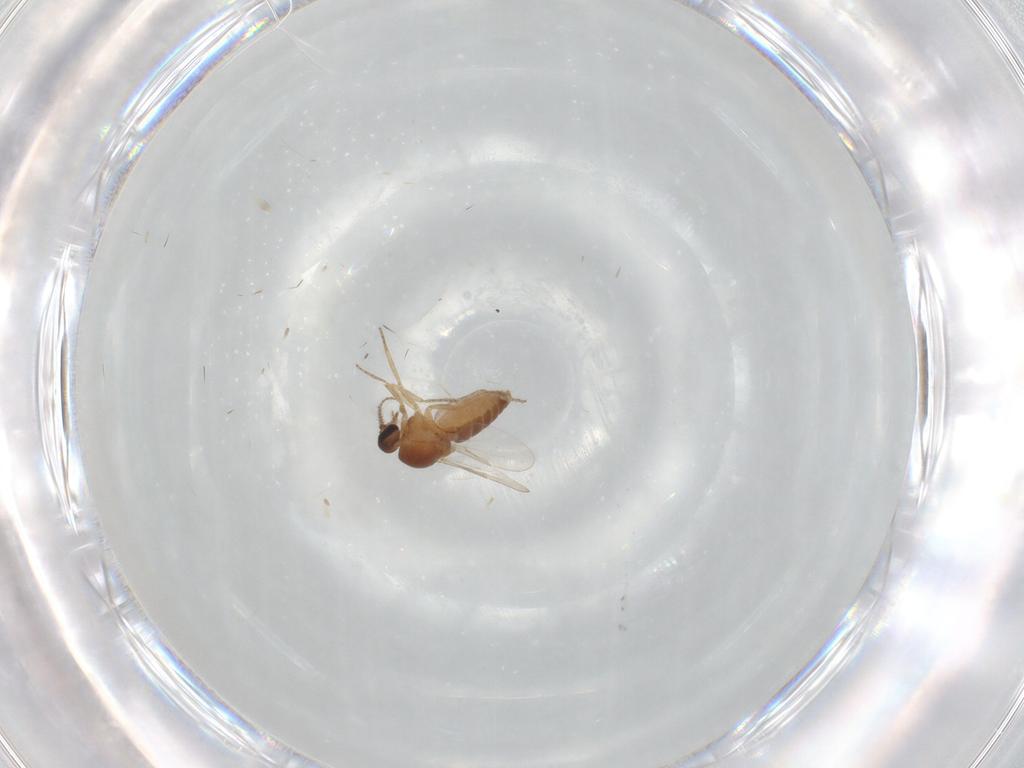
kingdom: Animalia
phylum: Arthropoda
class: Insecta
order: Diptera
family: Ceratopogonidae
